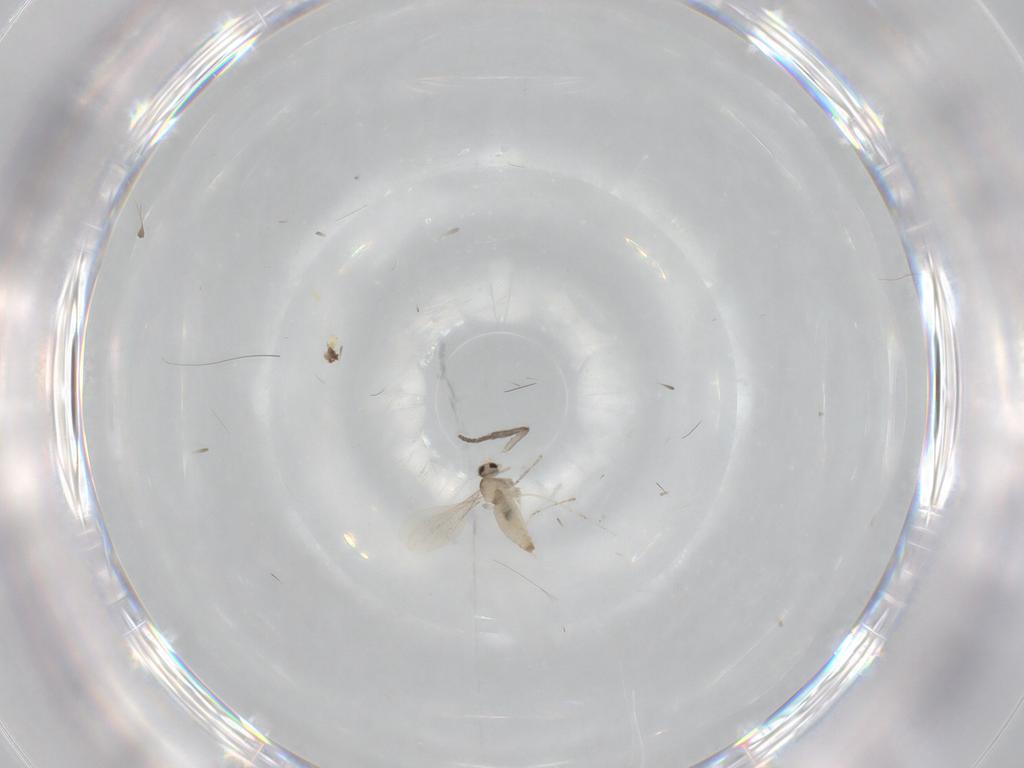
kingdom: Animalia
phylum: Arthropoda
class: Insecta
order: Diptera
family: Cecidomyiidae
